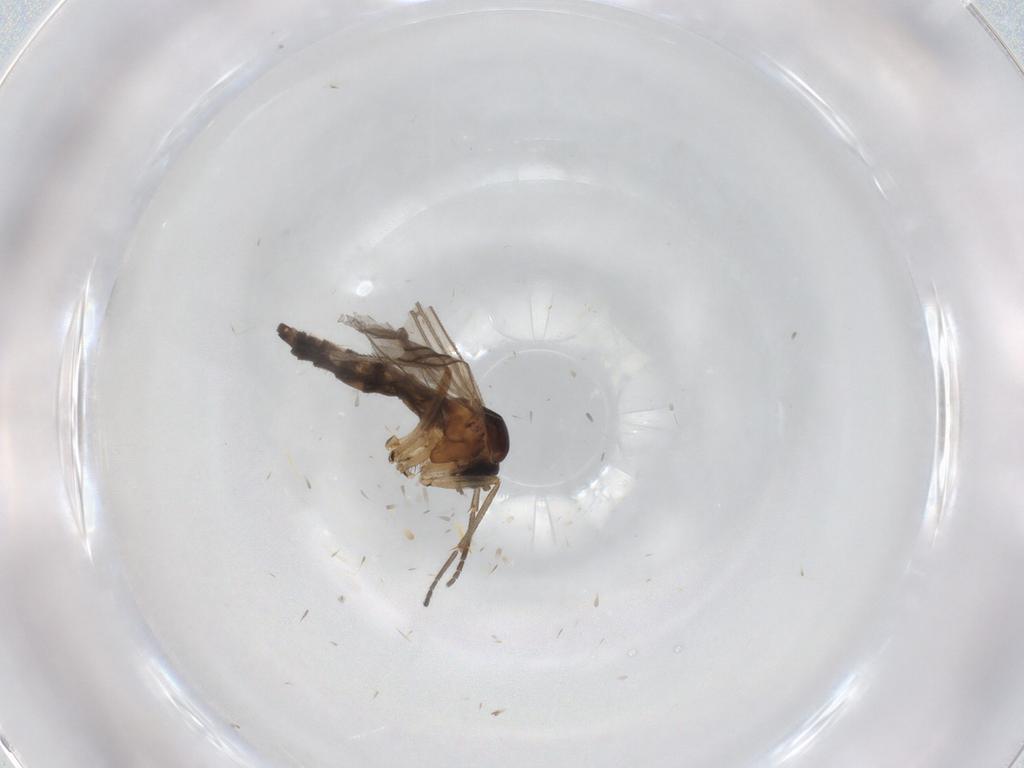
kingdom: Animalia
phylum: Arthropoda
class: Insecta
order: Diptera
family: Sciaridae
